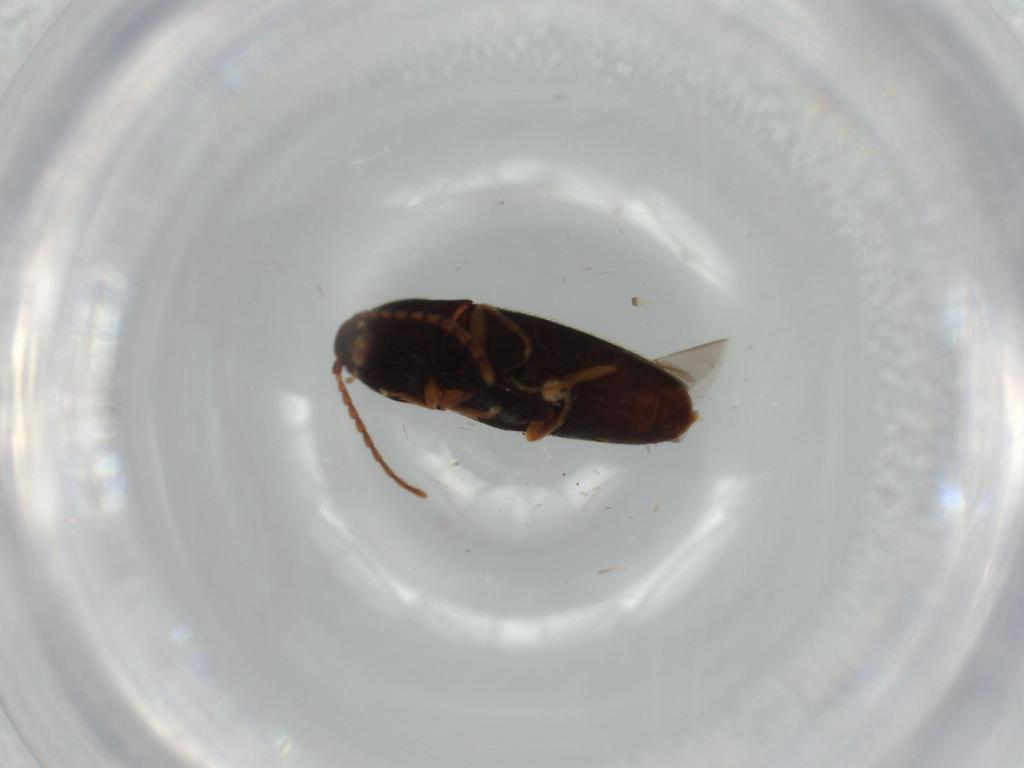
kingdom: Animalia
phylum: Arthropoda
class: Insecta
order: Coleoptera
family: Elateridae
